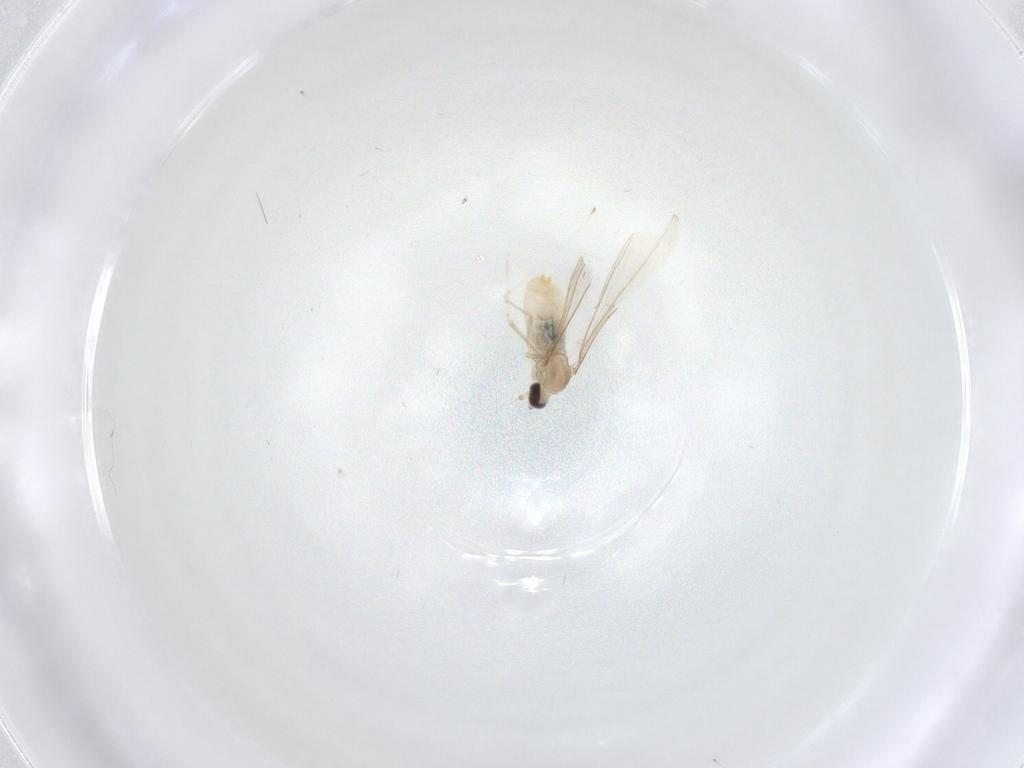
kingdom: Animalia
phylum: Arthropoda
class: Insecta
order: Diptera
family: Cecidomyiidae
